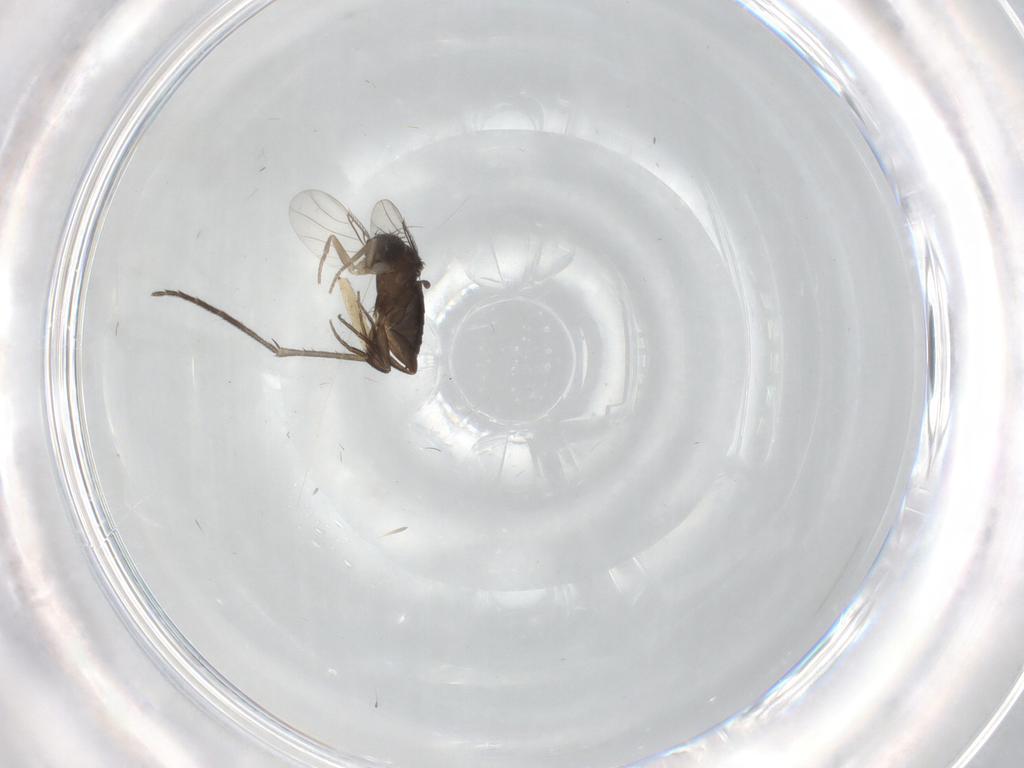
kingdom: Animalia
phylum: Arthropoda
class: Insecta
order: Diptera
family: Phoridae
